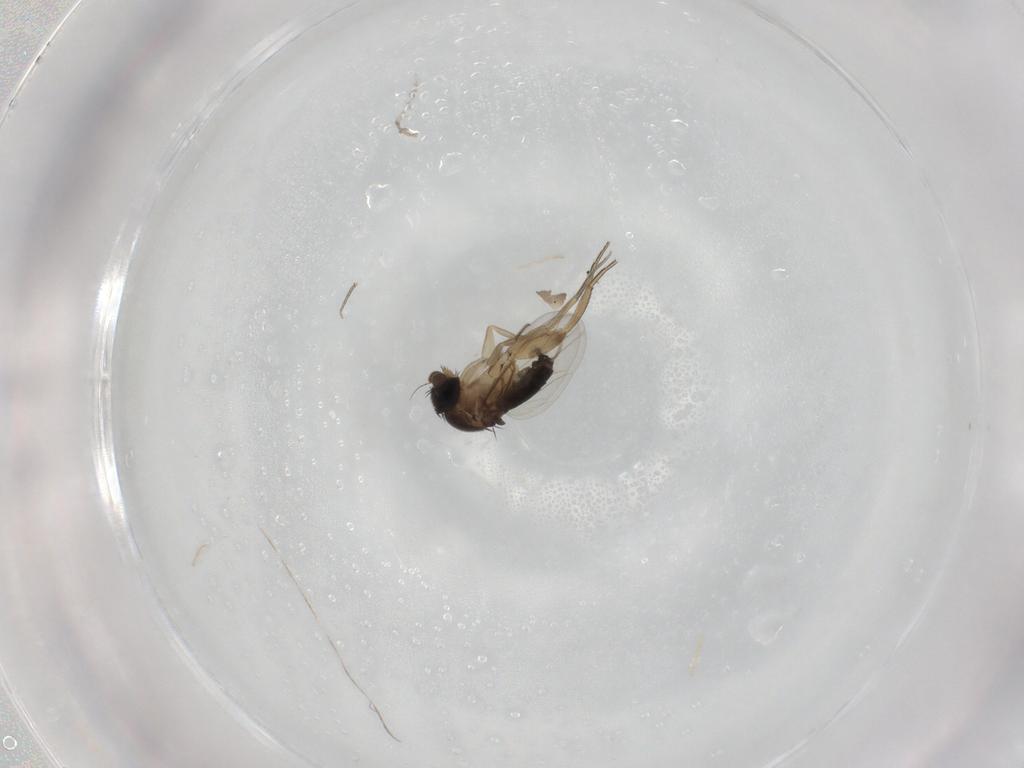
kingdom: Animalia
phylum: Arthropoda
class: Insecta
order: Diptera
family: Phoridae
